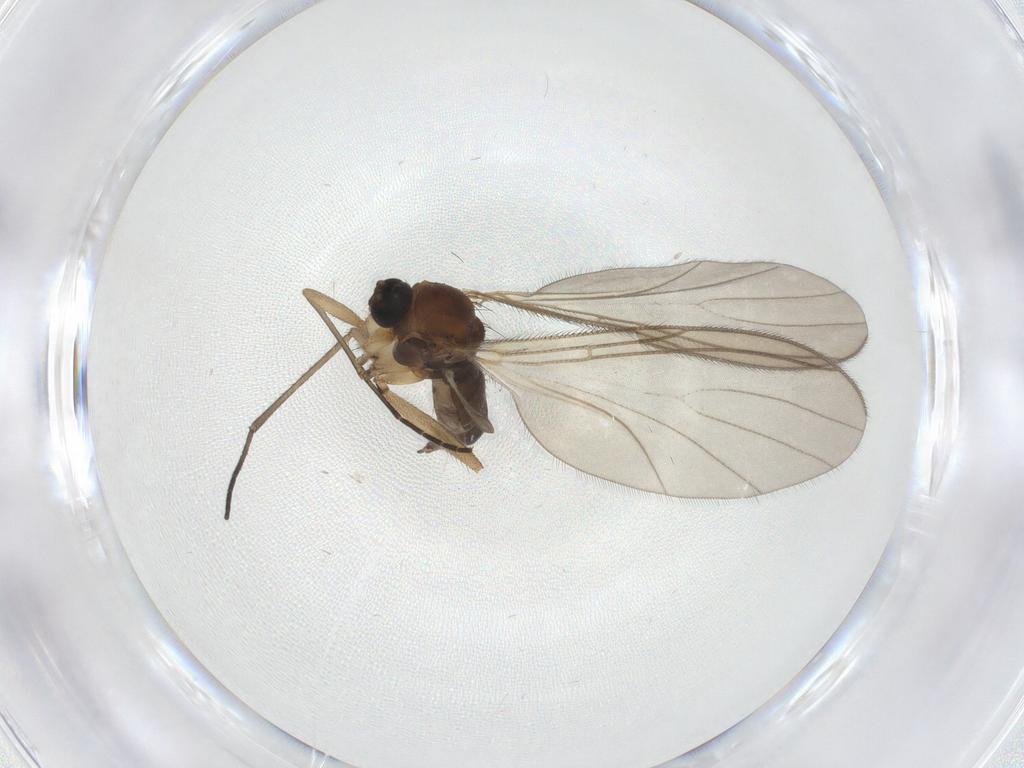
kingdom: Animalia
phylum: Arthropoda
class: Insecta
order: Diptera
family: Sciaridae
